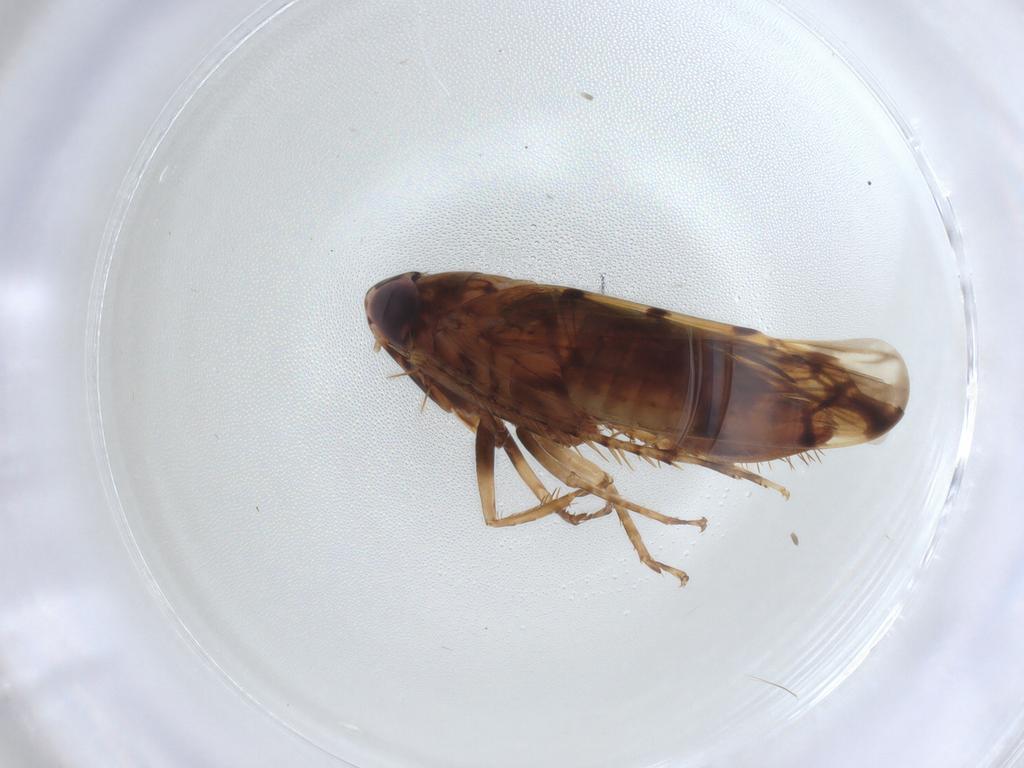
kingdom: Animalia
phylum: Arthropoda
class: Insecta
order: Hemiptera
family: Cicadellidae
